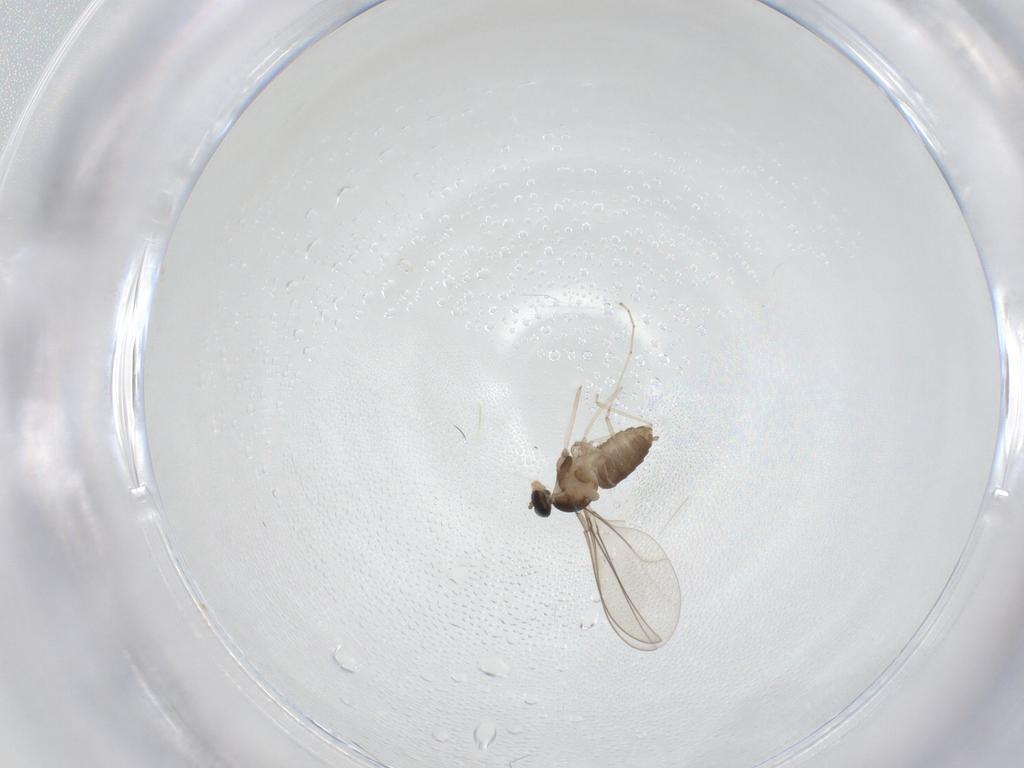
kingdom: Animalia
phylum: Arthropoda
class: Insecta
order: Diptera
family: Cecidomyiidae
